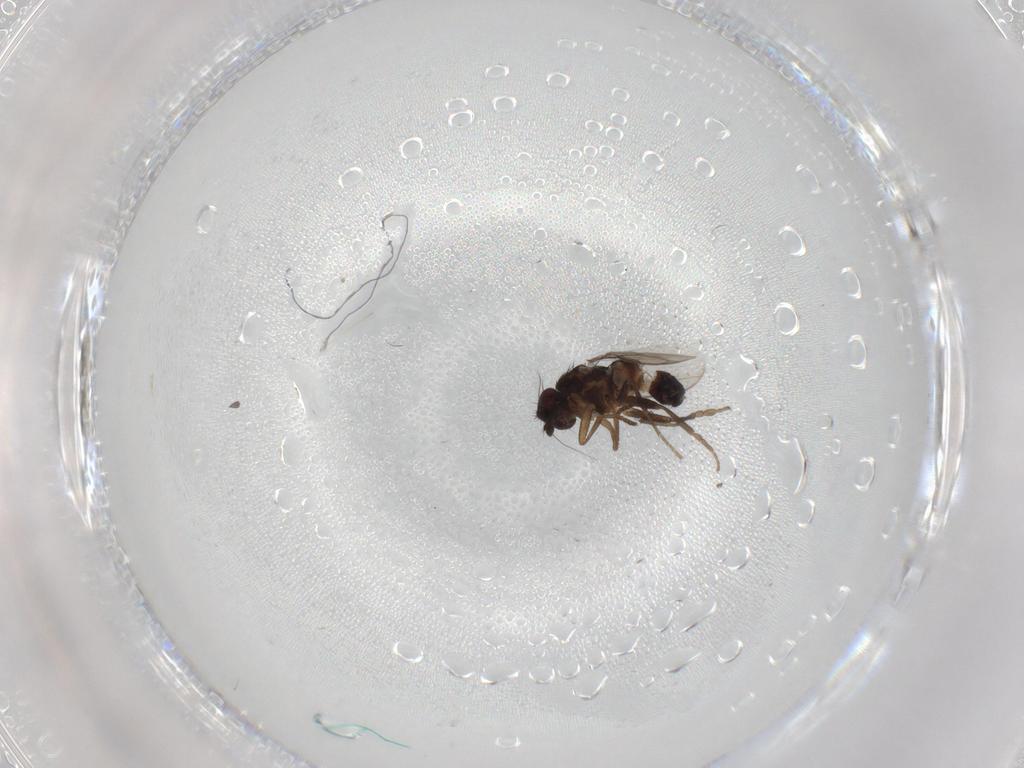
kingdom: Animalia
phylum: Arthropoda
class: Insecta
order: Diptera
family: Sphaeroceridae
